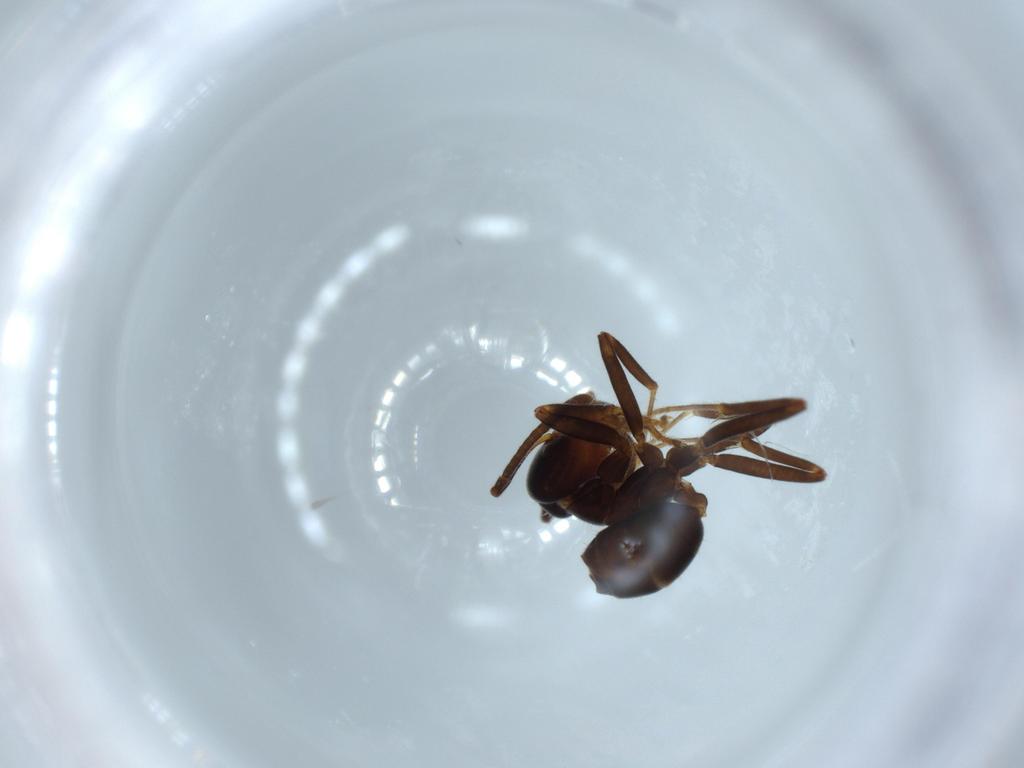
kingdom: Animalia
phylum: Arthropoda
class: Insecta
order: Hymenoptera
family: Formicidae
